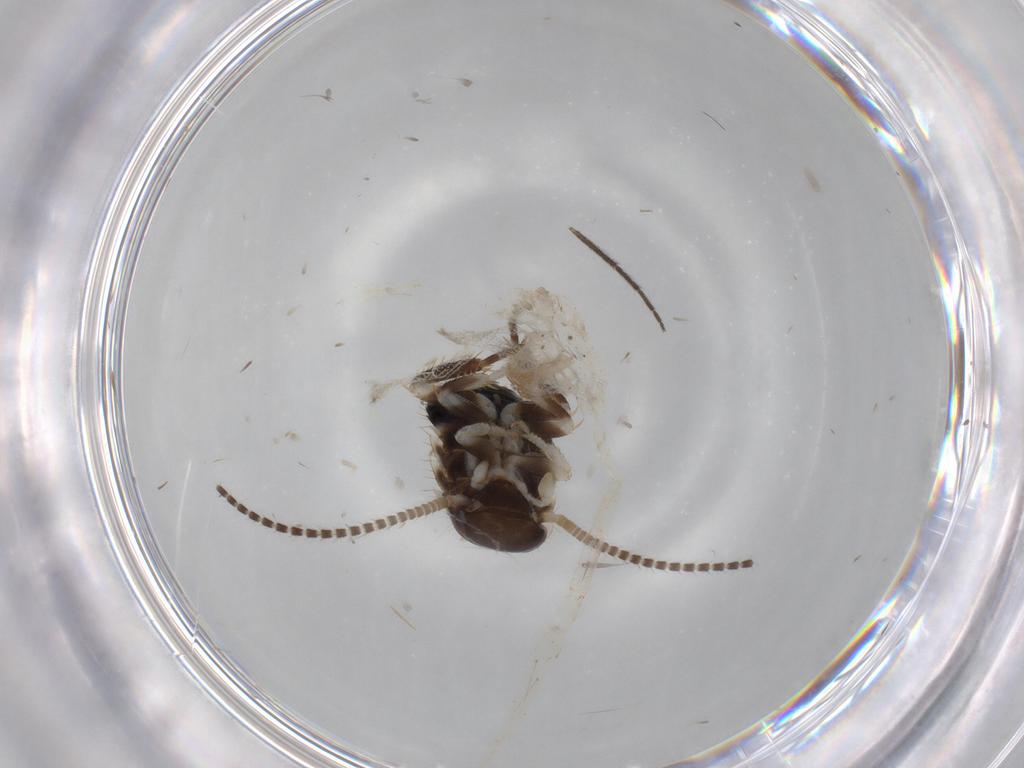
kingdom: Animalia
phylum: Arthropoda
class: Insecta
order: Blattodea
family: Ectobiidae
